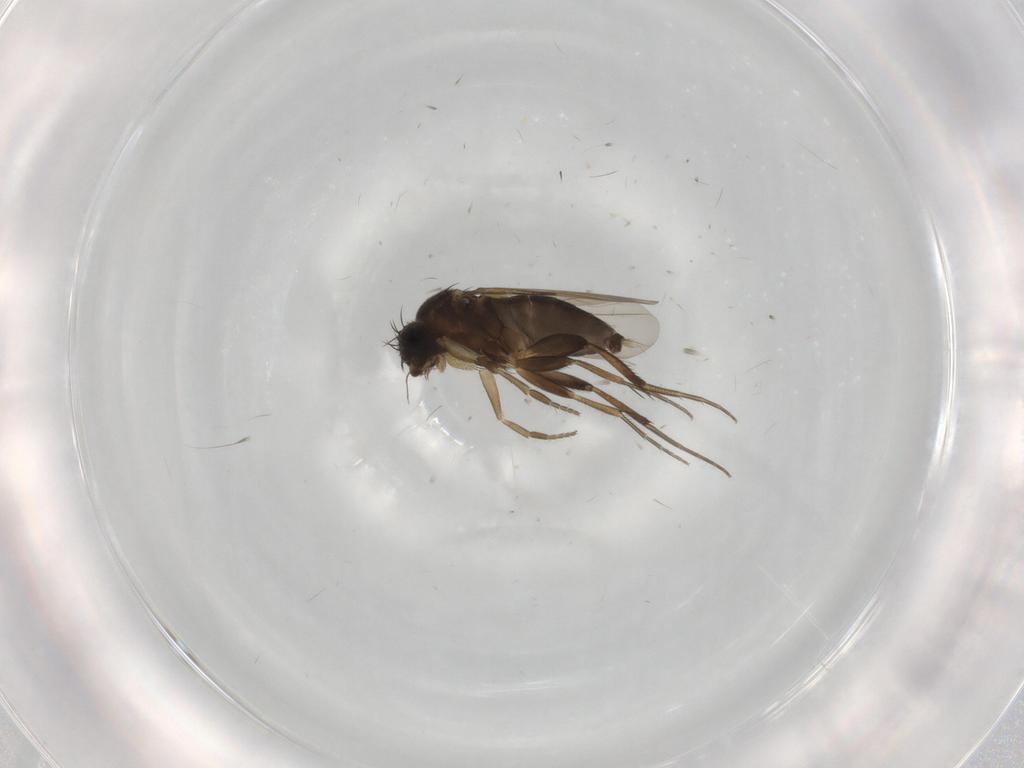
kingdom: Animalia
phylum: Arthropoda
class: Insecta
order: Diptera
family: Phoridae
